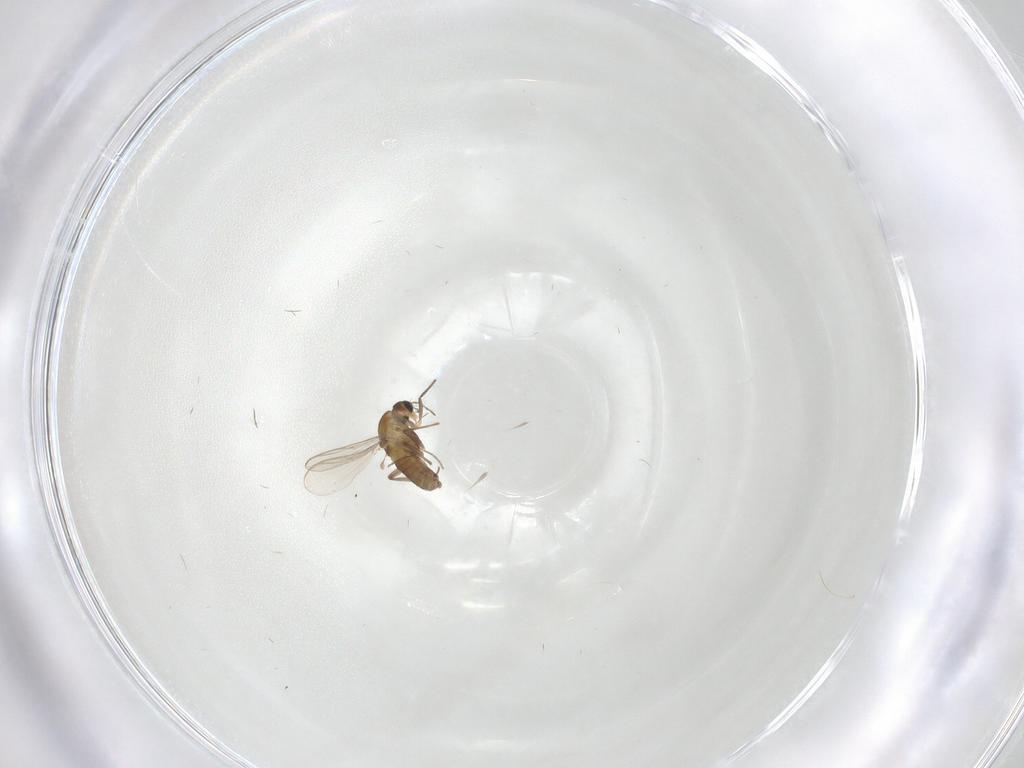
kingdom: Animalia
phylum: Arthropoda
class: Insecta
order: Diptera
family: Chironomidae
